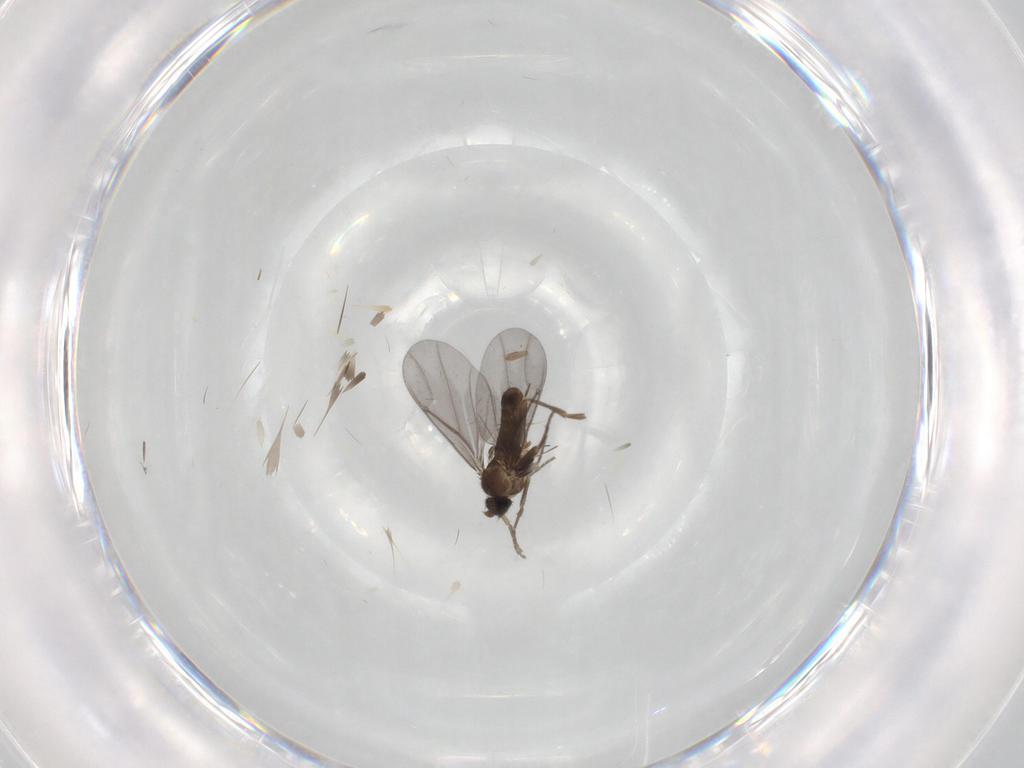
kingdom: Animalia
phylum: Arthropoda
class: Insecta
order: Diptera
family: Phoridae
